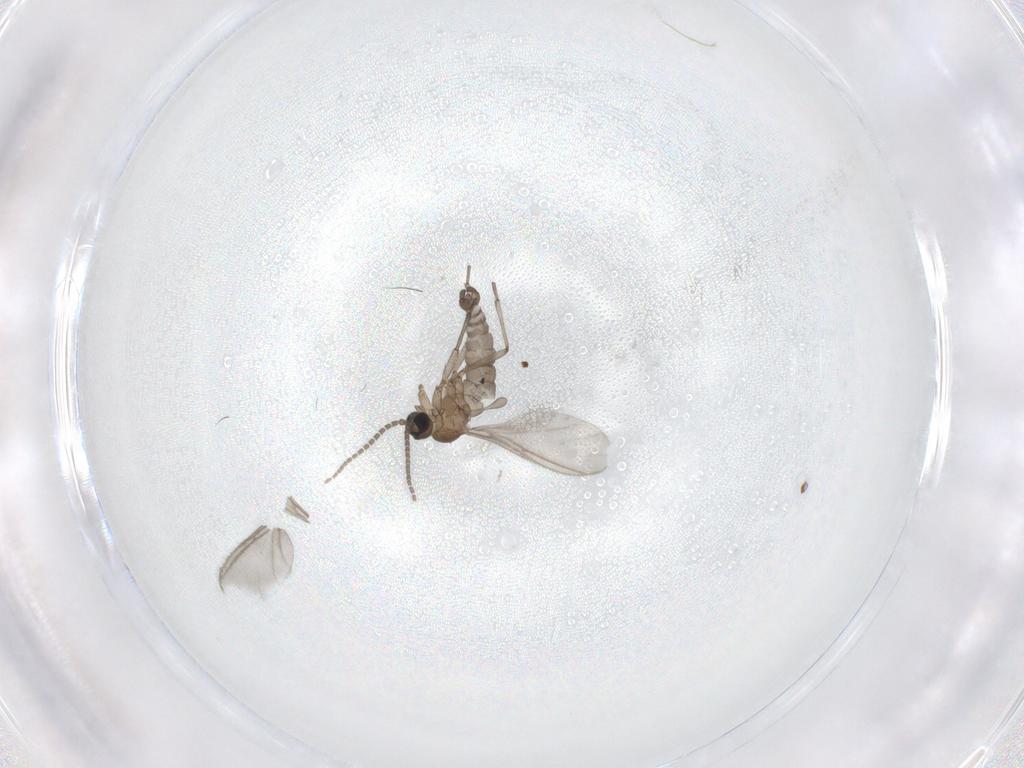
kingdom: Animalia
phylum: Arthropoda
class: Insecta
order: Diptera
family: Sciaridae
